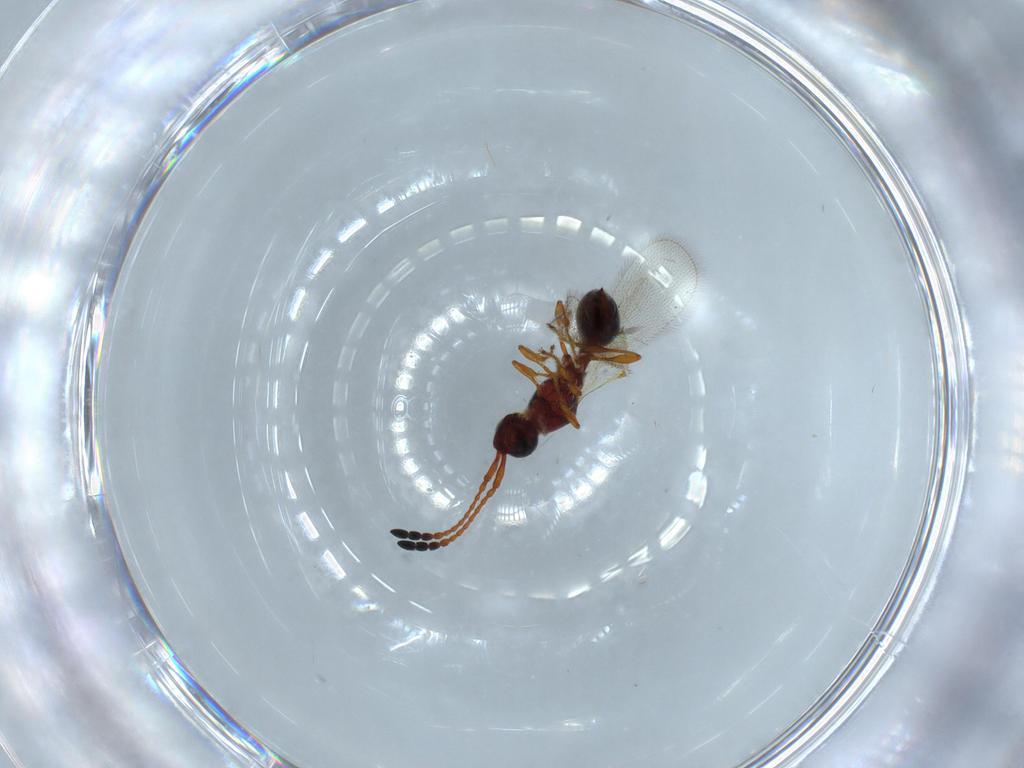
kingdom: Animalia
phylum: Arthropoda
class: Insecta
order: Hymenoptera
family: Diapriidae
